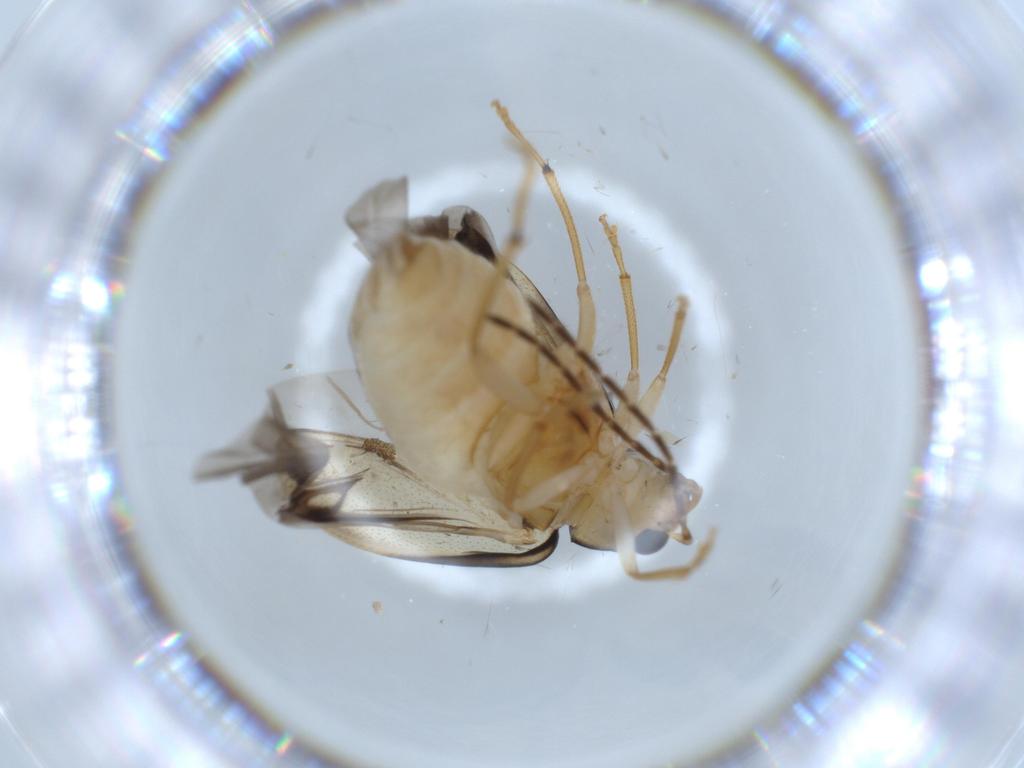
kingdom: Animalia
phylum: Arthropoda
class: Insecta
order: Coleoptera
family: Chrysomelidae
